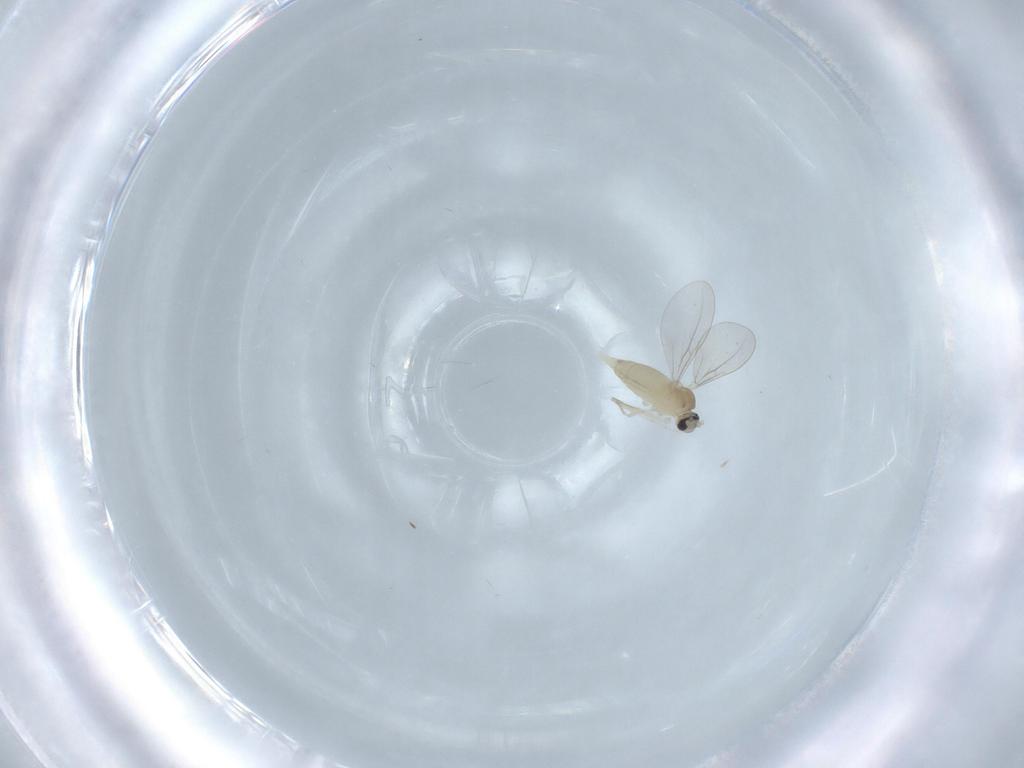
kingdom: Animalia
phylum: Arthropoda
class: Insecta
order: Diptera
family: Cecidomyiidae
